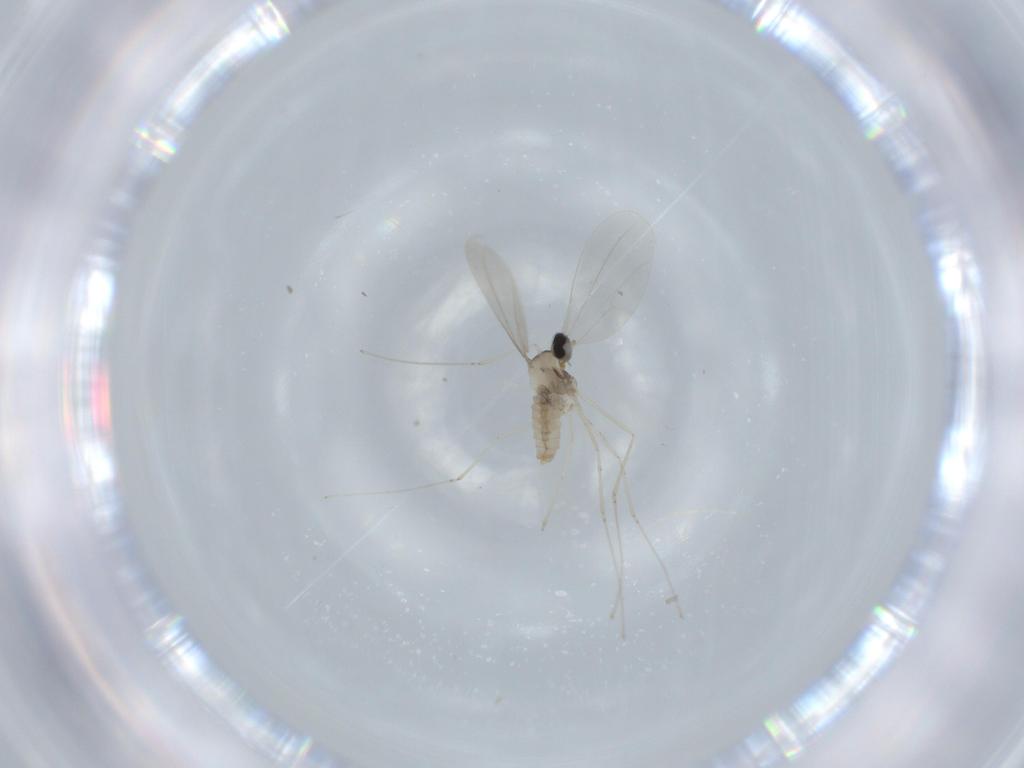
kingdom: Animalia
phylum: Arthropoda
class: Insecta
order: Diptera
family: Cecidomyiidae
